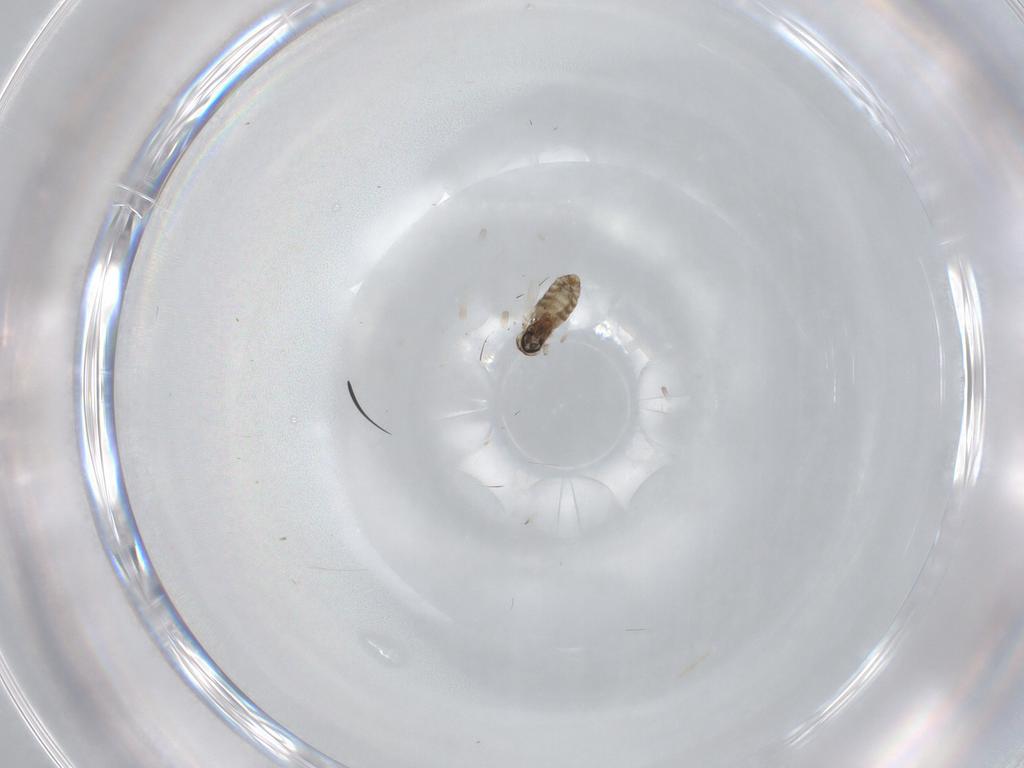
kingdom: Animalia
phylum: Arthropoda
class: Insecta
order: Diptera
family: Ceratopogonidae
